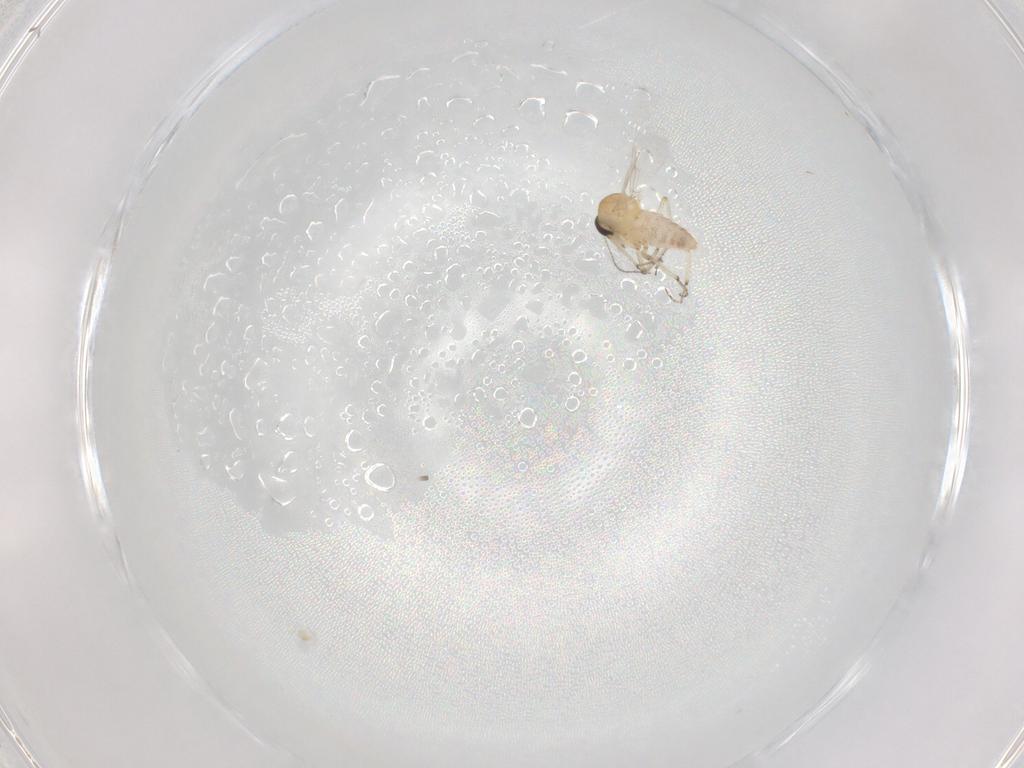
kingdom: Animalia
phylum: Arthropoda
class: Insecta
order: Diptera
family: Ceratopogonidae
